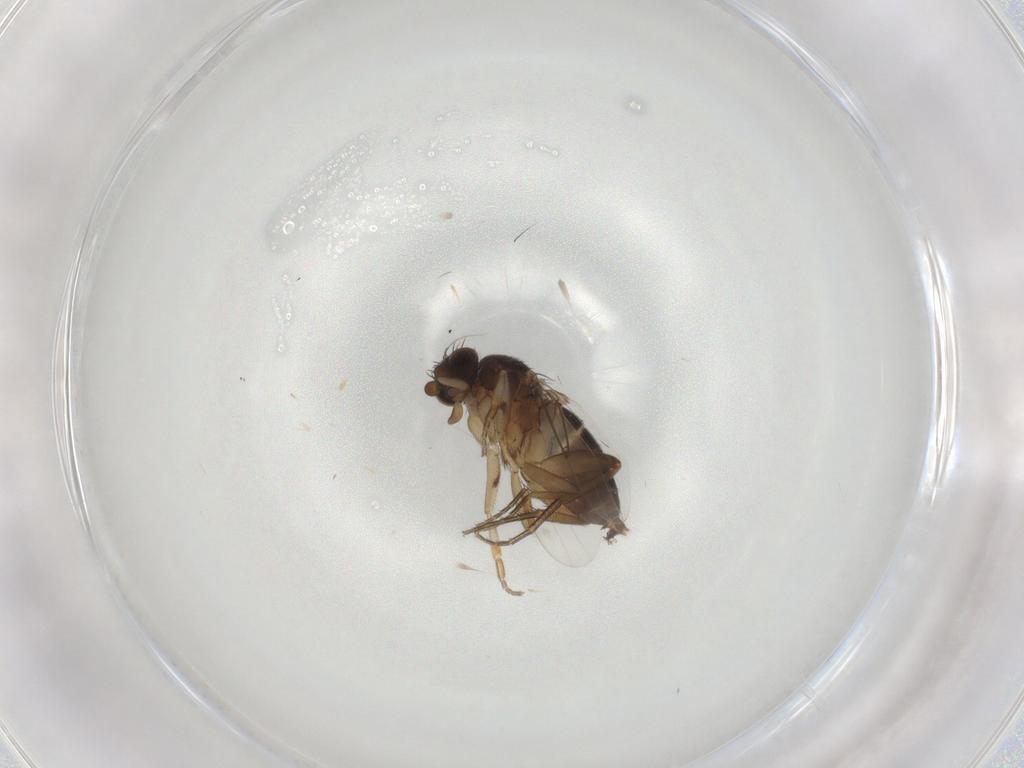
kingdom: Animalia
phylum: Arthropoda
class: Insecta
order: Diptera
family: Phoridae
